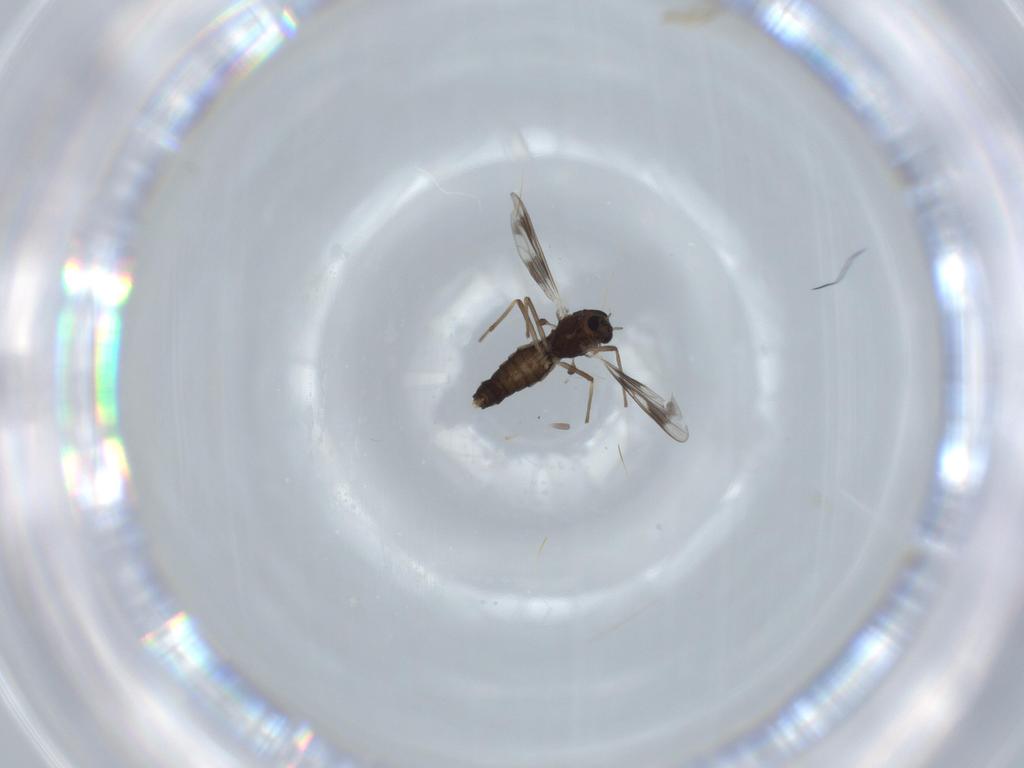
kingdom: Animalia
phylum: Arthropoda
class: Insecta
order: Diptera
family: Chironomidae
